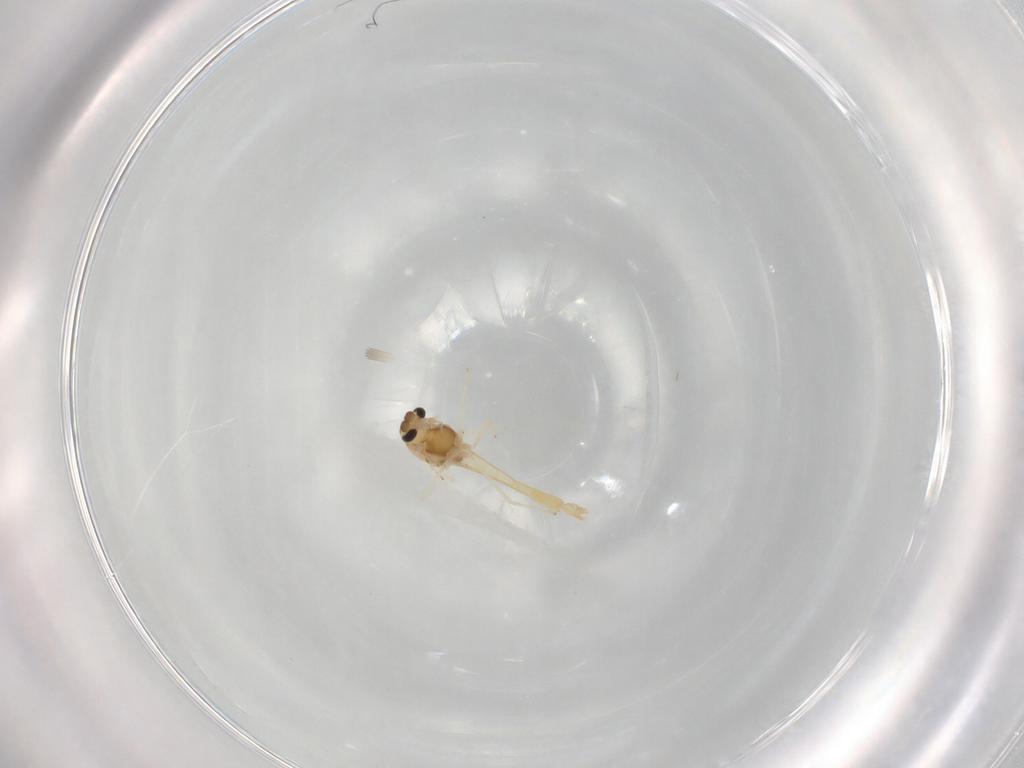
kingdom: Animalia
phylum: Arthropoda
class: Insecta
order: Diptera
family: Chironomidae
